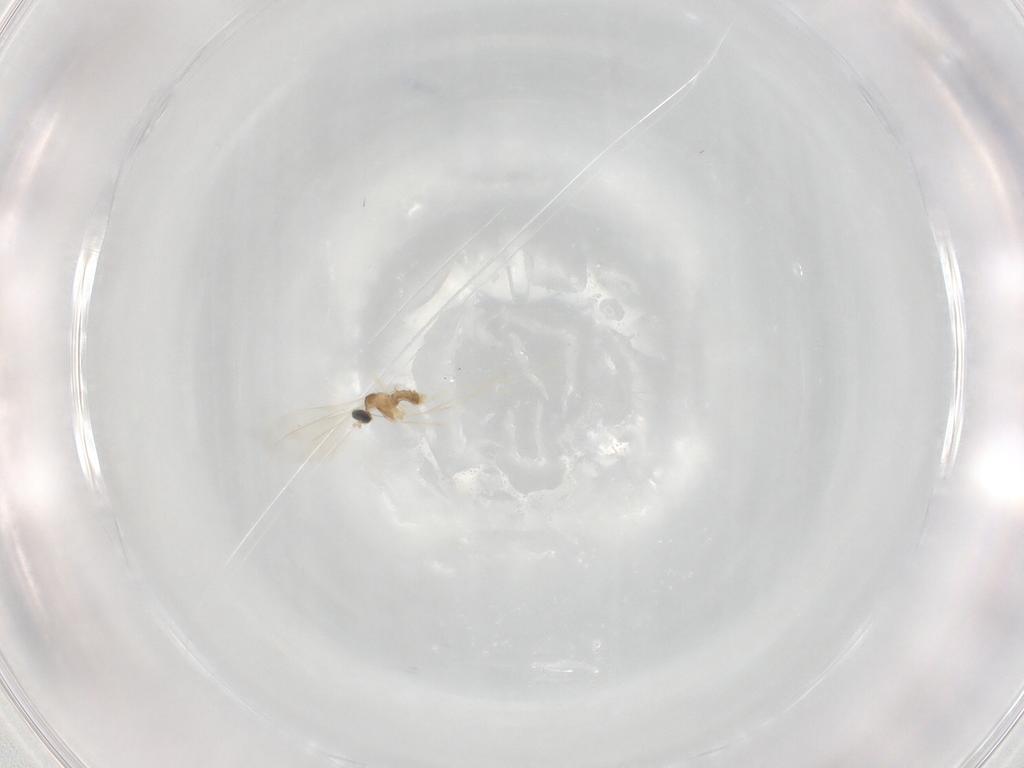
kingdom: Animalia
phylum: Arthropoda
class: Insecta
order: Diptera
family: Cecidomyiidae
